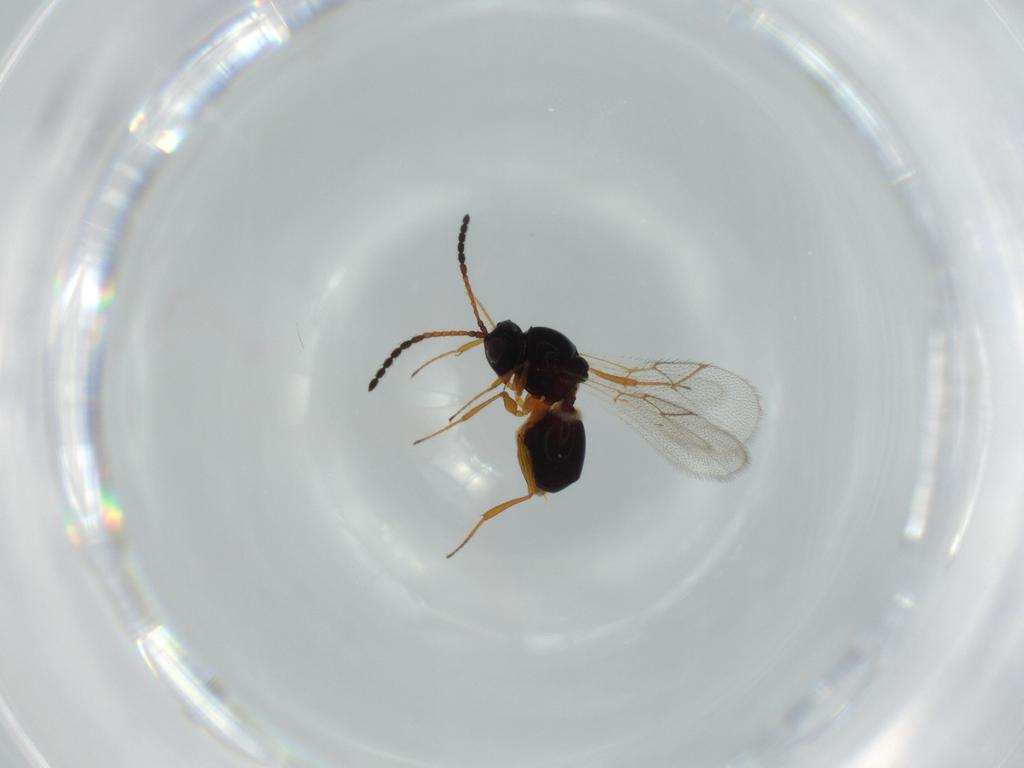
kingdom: Animalia
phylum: Arthropoda
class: Insecta
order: Hymenoptera
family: Figitidae
